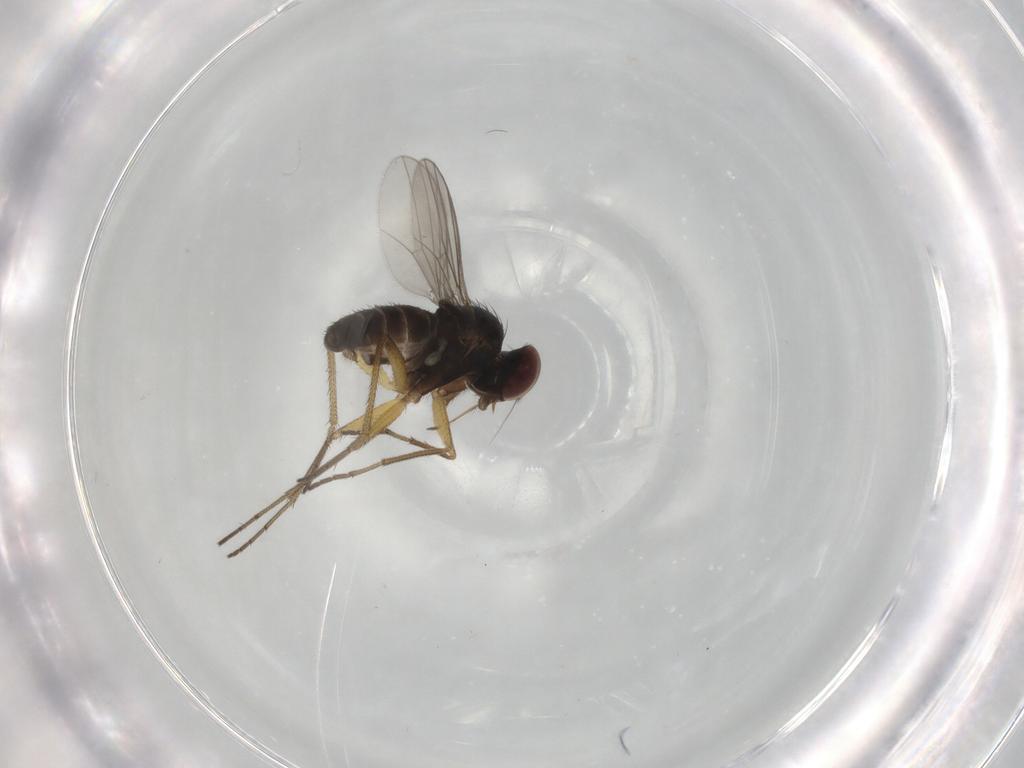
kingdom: Animalia
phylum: Arthropoda
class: Insecta
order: Diptera
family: Dolichopodidae
